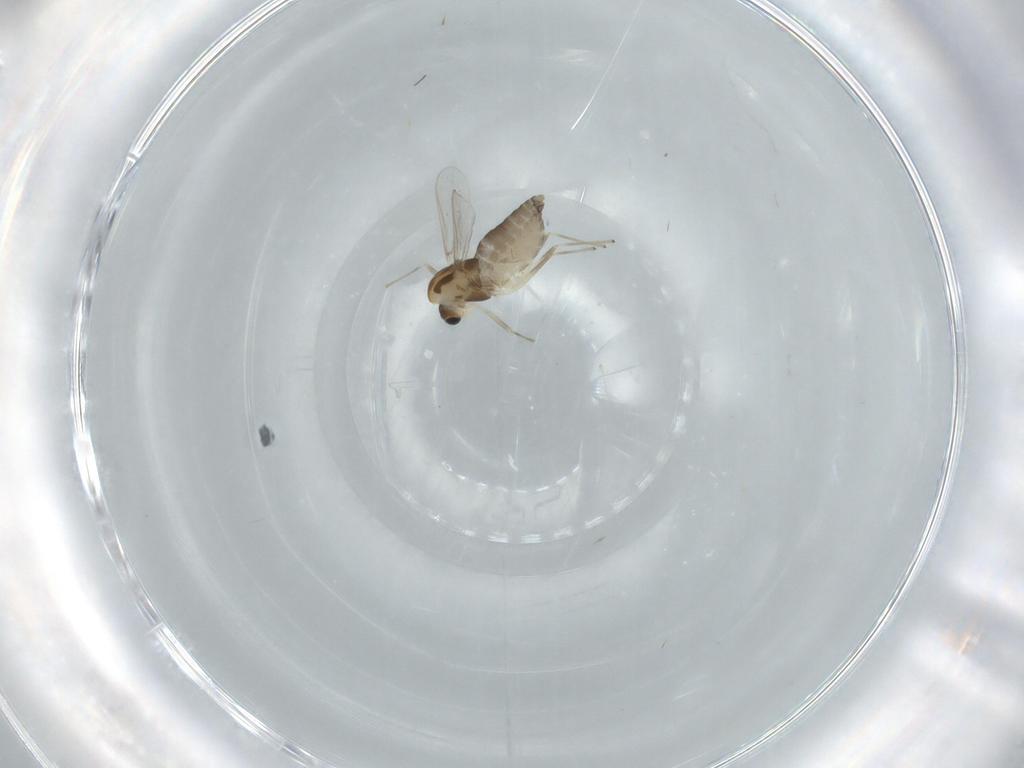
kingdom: Animalia
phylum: Arthropoda
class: Insecta
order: Diptera
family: Chironomidae
